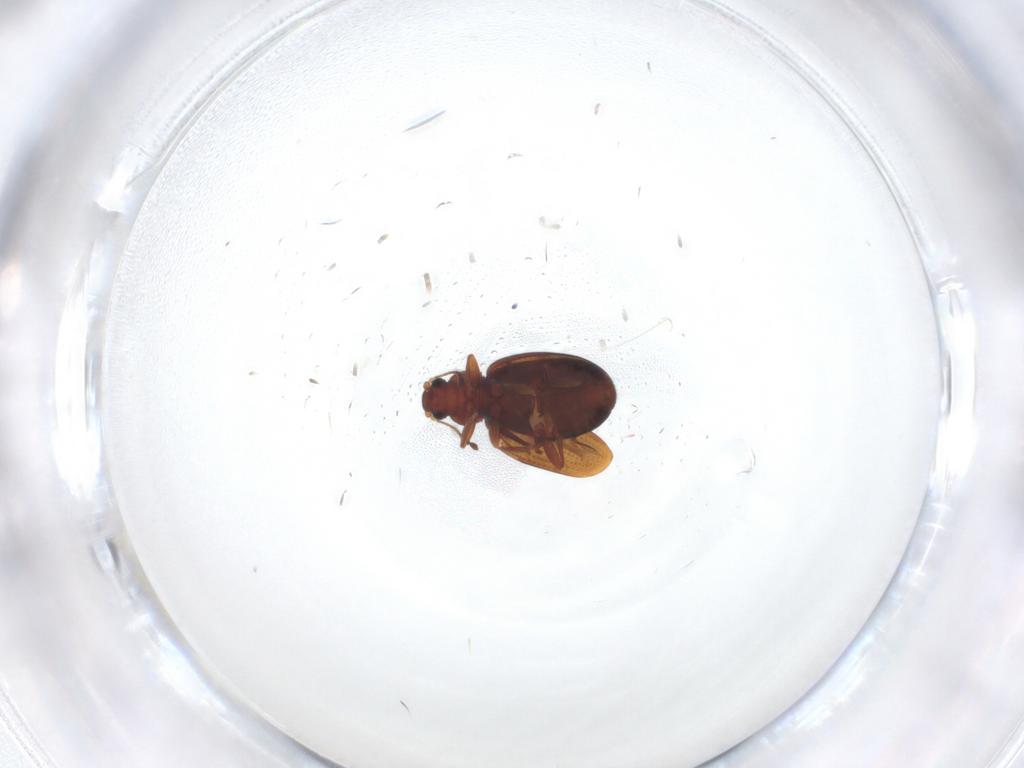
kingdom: Animalia
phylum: Arthropoda
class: Insecta
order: Coleoptera
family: Latridiidae
